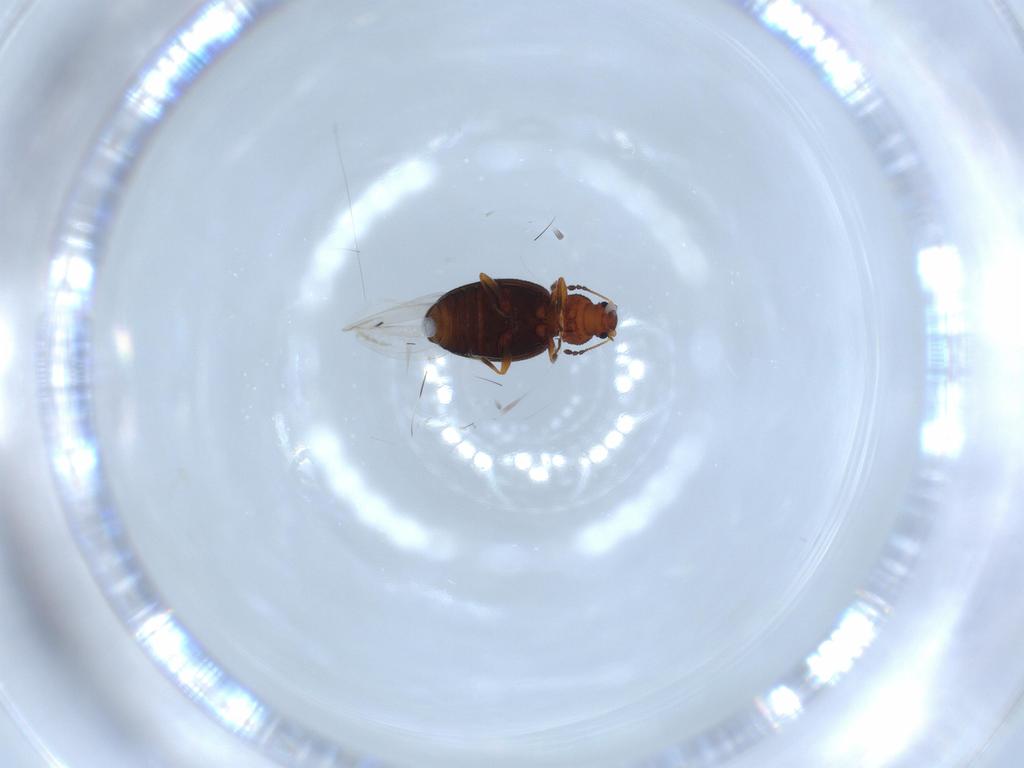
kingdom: Animalia
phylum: Arthropoda
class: Insecta
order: Coleoptera
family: Latridiidae
